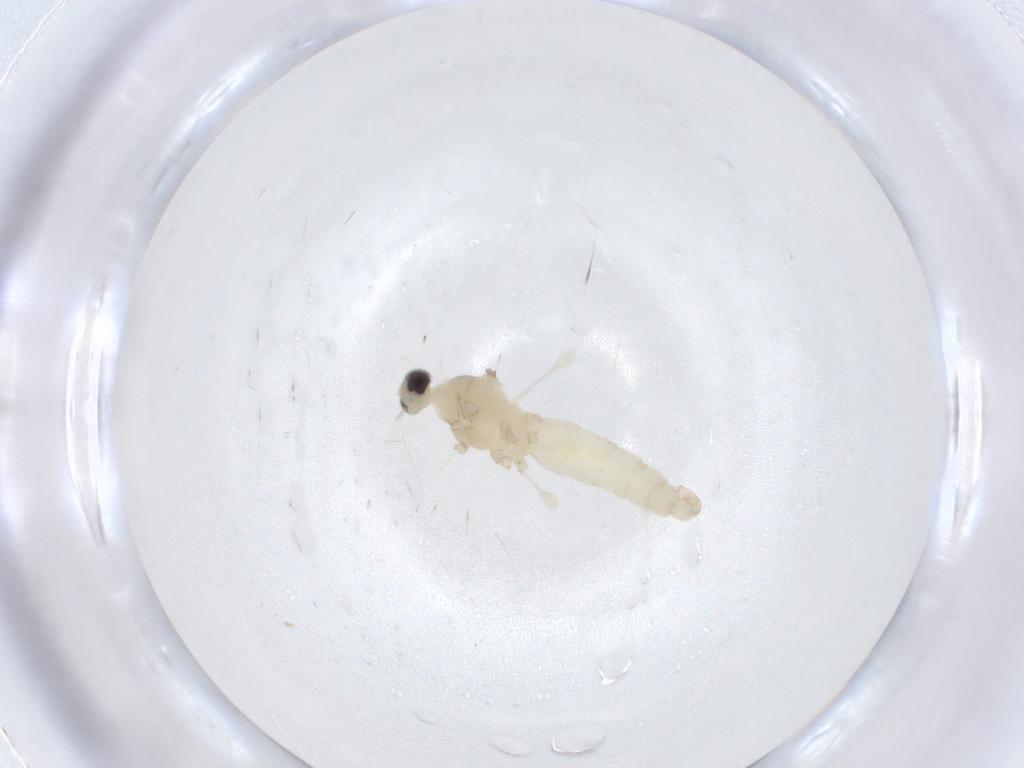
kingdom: Animalia
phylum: Arthropoda
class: Insecta
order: Diptera
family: Cecidomyiidae
